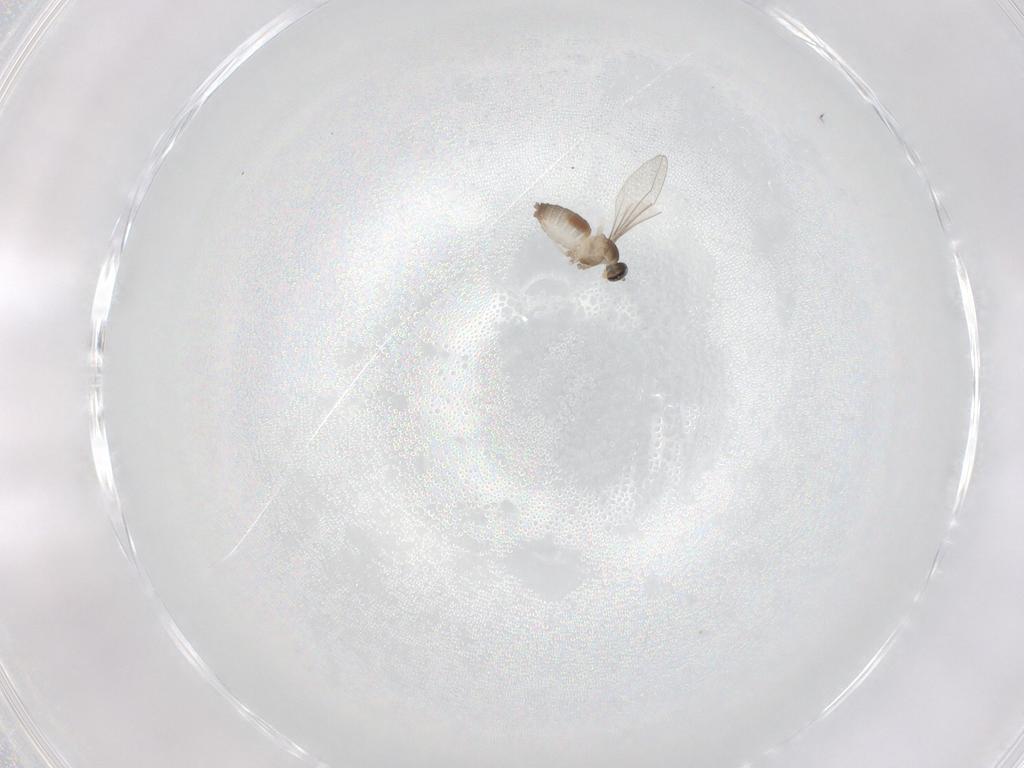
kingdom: Animalia
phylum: Arthropoda
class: Insecta
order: Diptera
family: Cecidomyiidae
